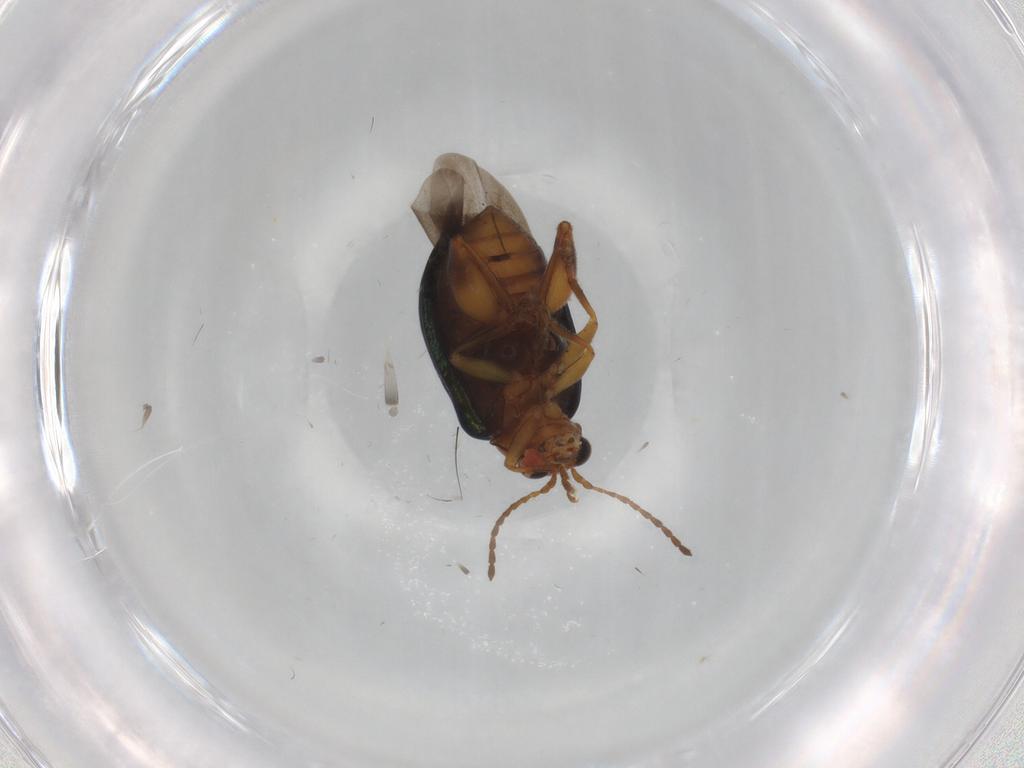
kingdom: Animalia
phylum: Arthropoda
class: Insecta
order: Coleoptera
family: Chrysomelidae
